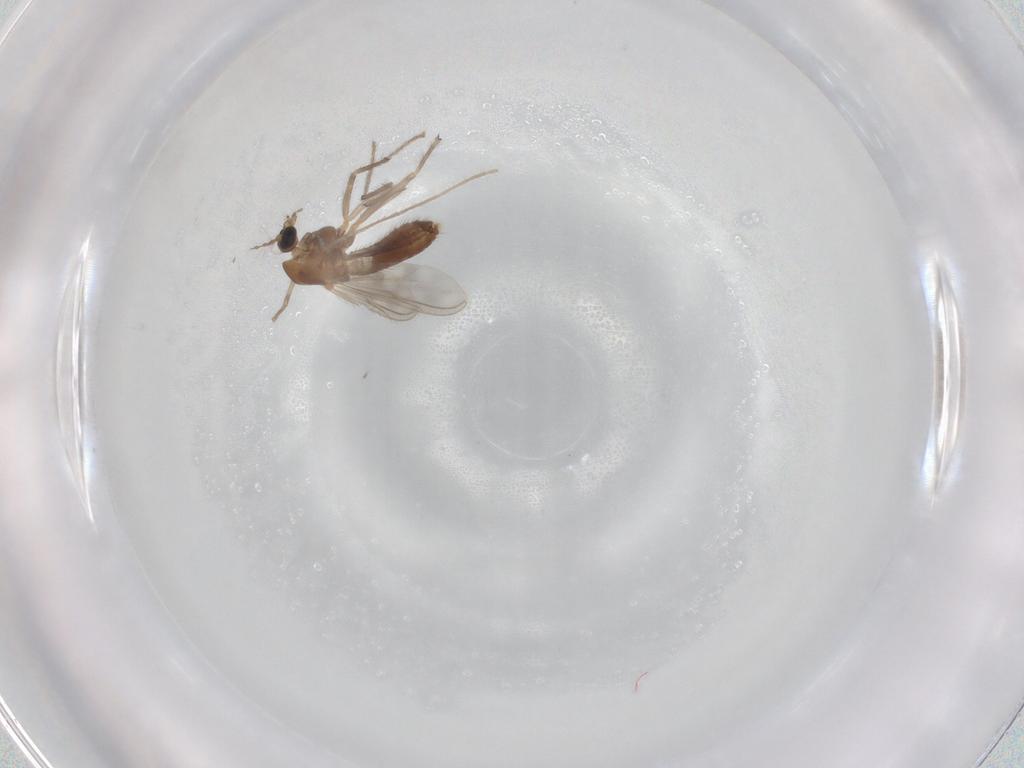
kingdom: Animalia
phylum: Arthropoda
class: Insecta
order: Diptera
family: Chironomidae
